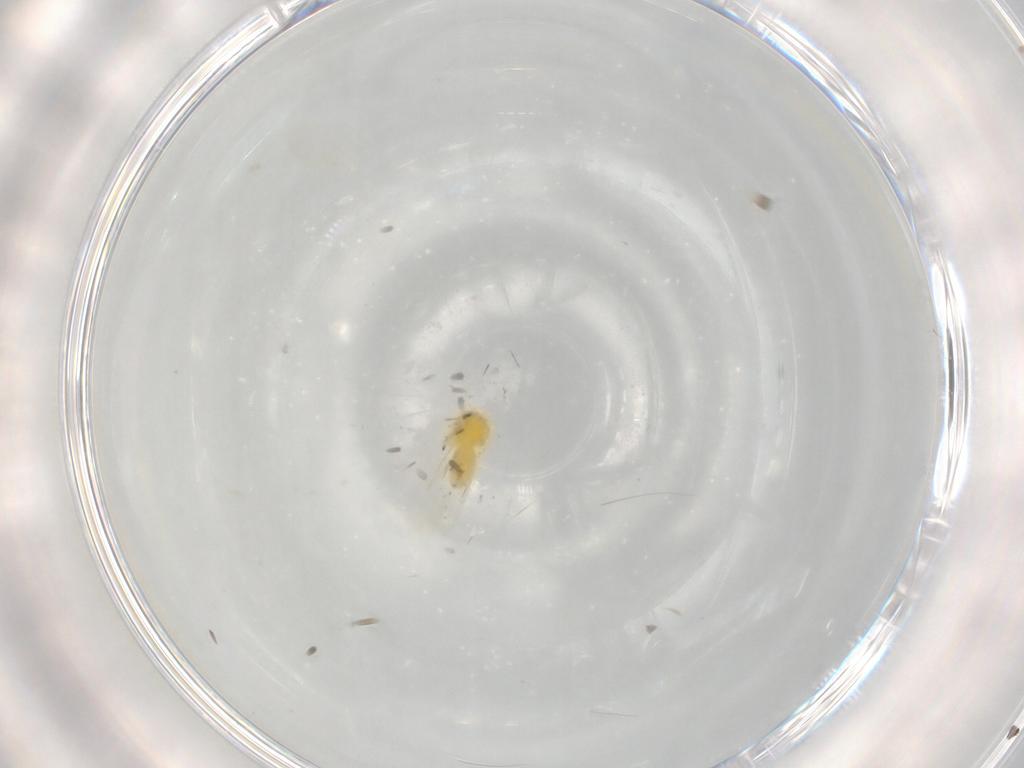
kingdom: Animalia
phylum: Arthropoda
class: Insecta
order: Hemiptera
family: Aleyrodidae
